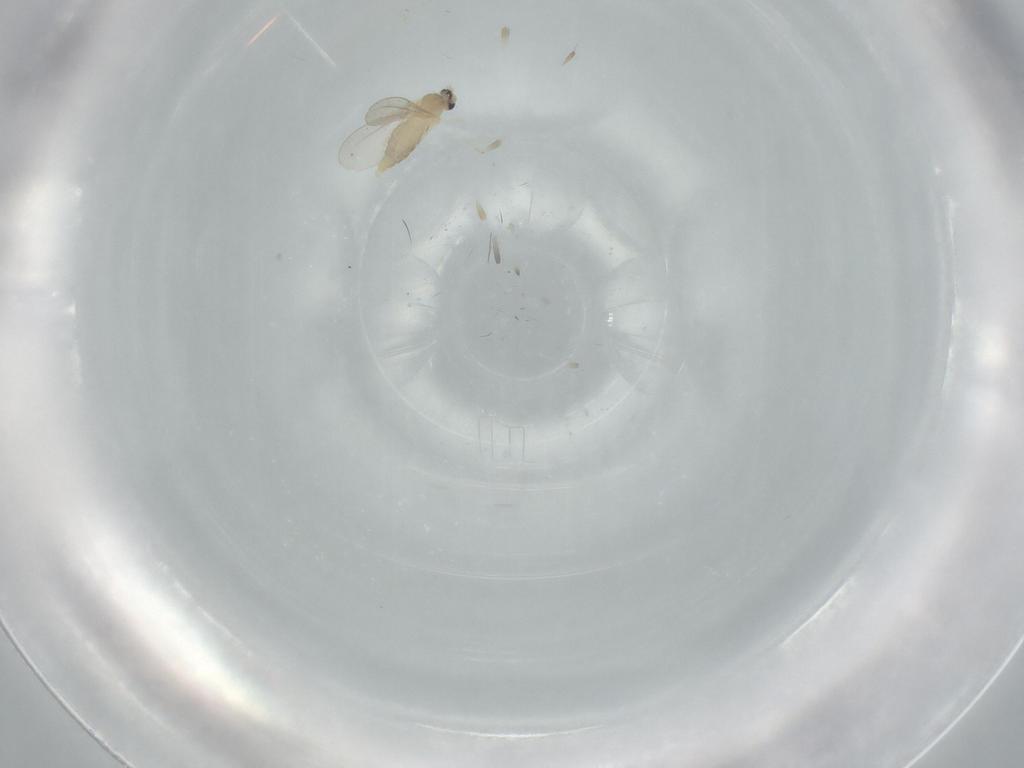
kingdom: Animalia
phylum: Arthropoda
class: Insecta
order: Diptera
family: Cecidomyiidae
